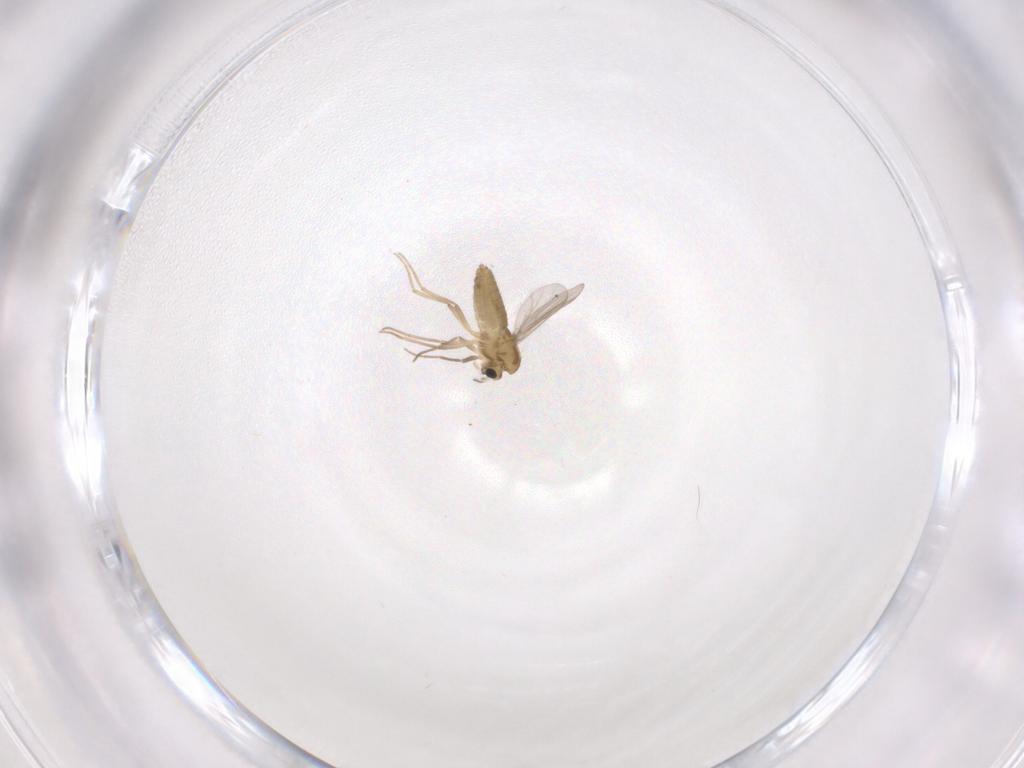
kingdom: Animalia
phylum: Arthropoda
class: Insecta
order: Diptera
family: Chironomidae
